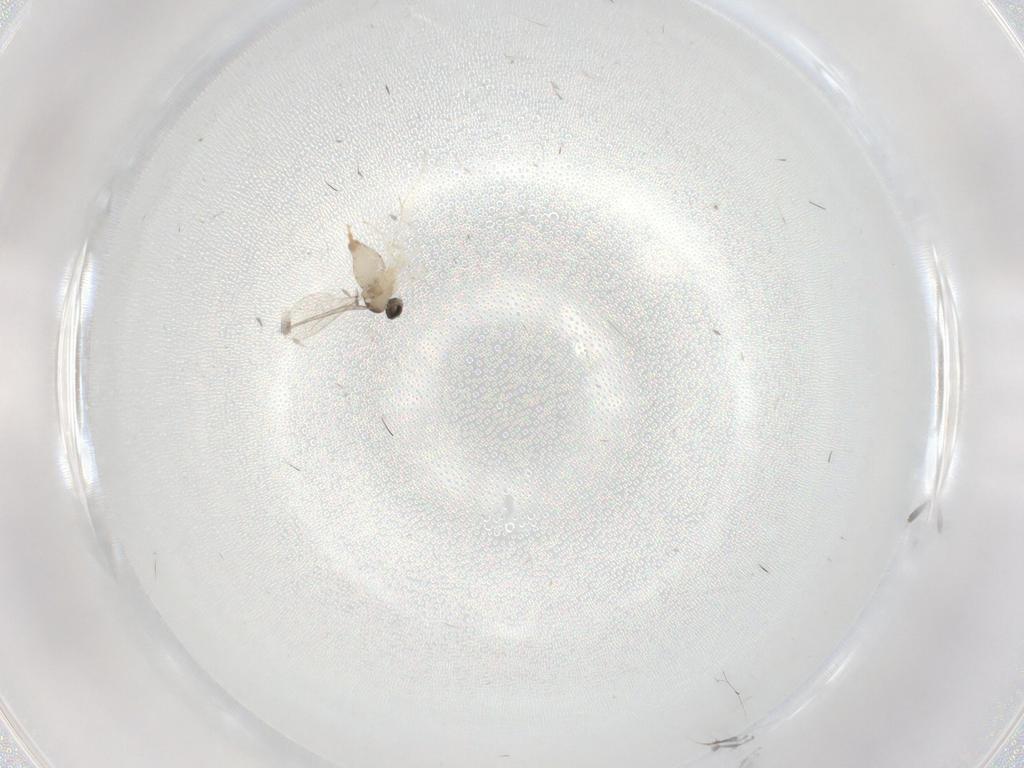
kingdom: Animalia
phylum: Arthropoda
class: Insecta
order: Diptera
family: Cecidomyiidae
